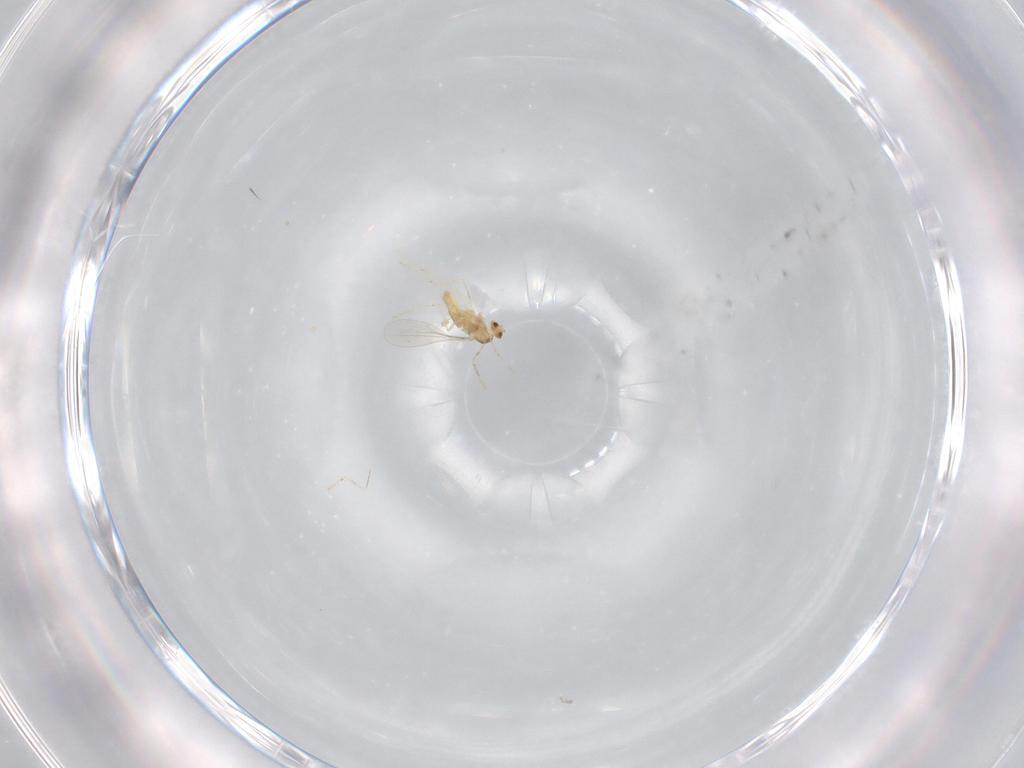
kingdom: Animalia
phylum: Arthropoda
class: Insecta
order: Diptera
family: Cecidomyiidae
